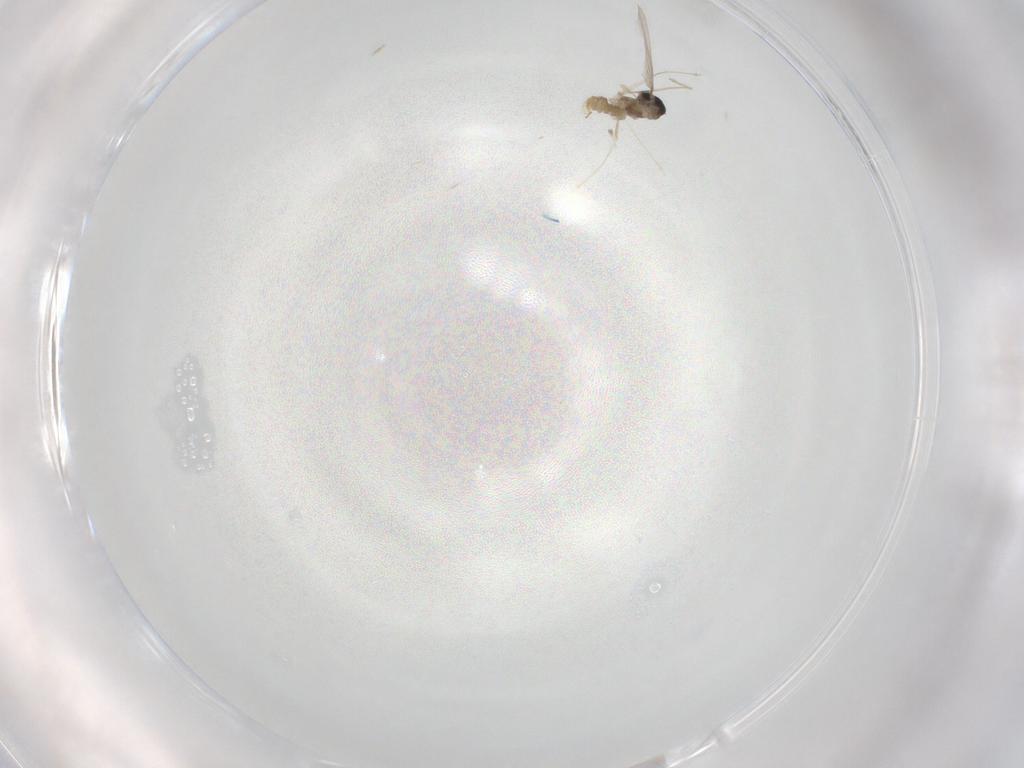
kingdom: Animalia
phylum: Arthropoda
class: Insecta
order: Diptera
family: Cecidomyiidae
